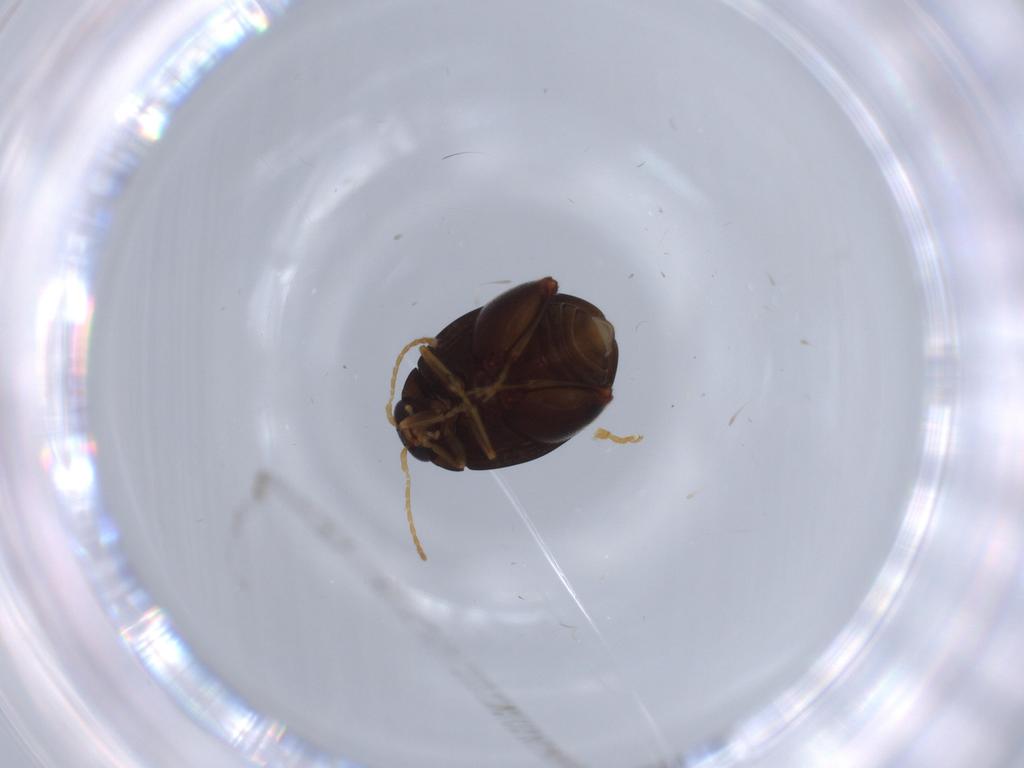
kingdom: Animalia
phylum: Arthropoda
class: Insecta
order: Coleoptera
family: Chrysomelidae
